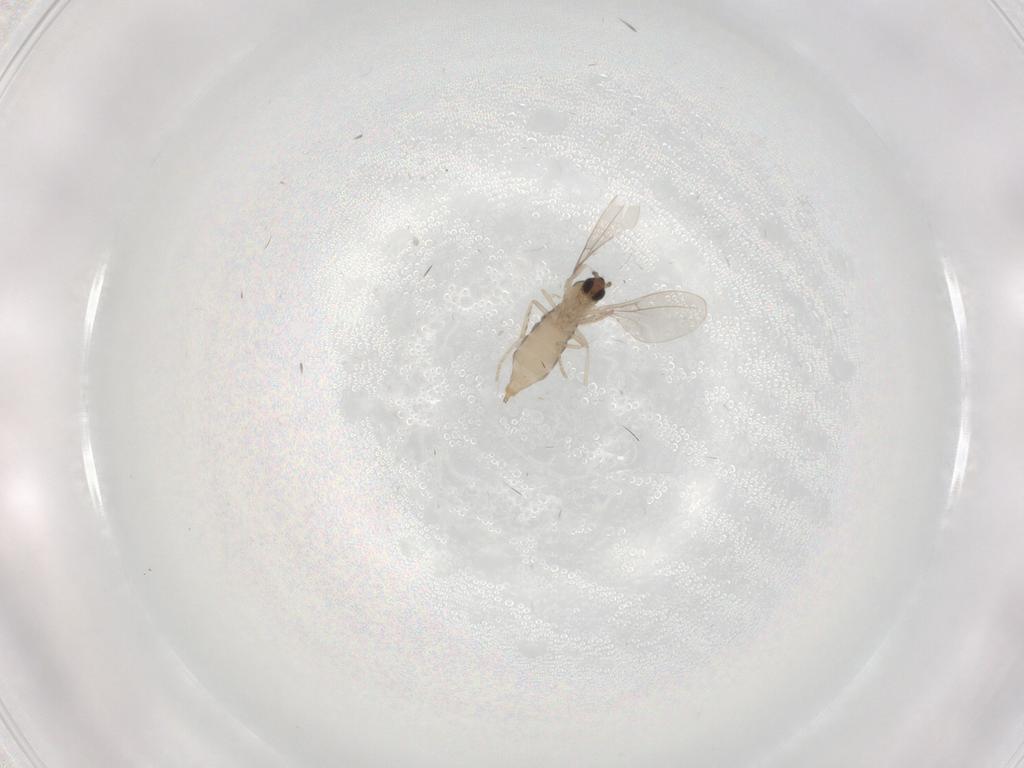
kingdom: Animalia
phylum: Arthropoda
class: Insecta
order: Diptera
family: Cecidomyiidae
